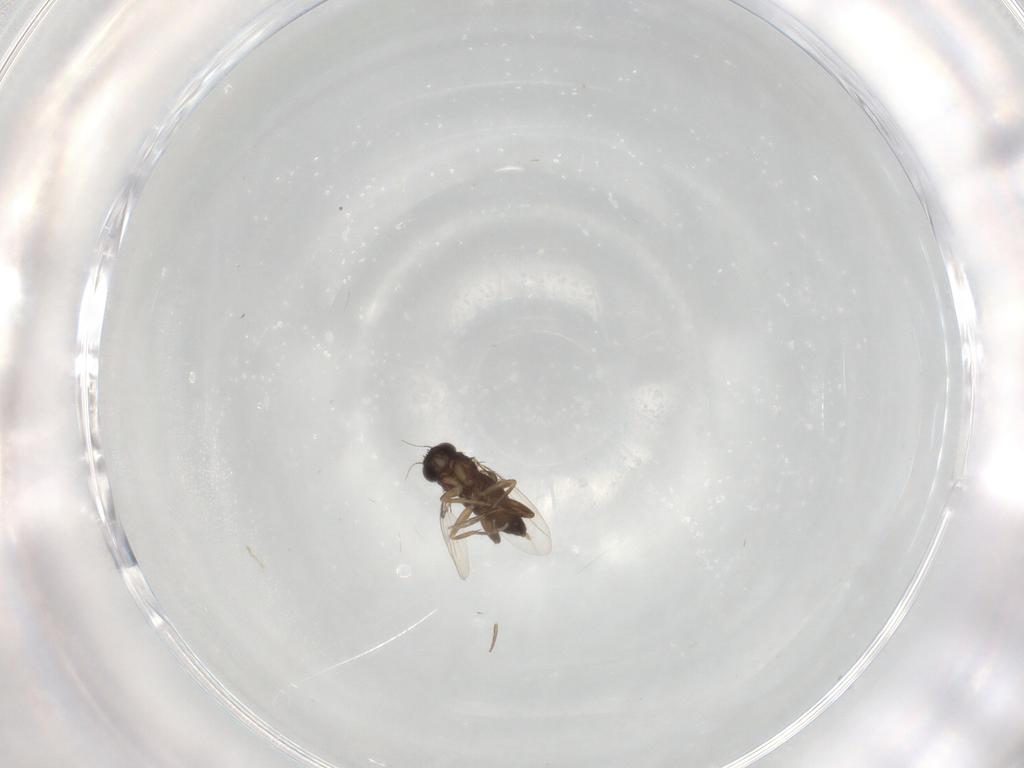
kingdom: Animalia
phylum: Arthropoda
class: Insecta
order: Diptera
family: Phoridae
